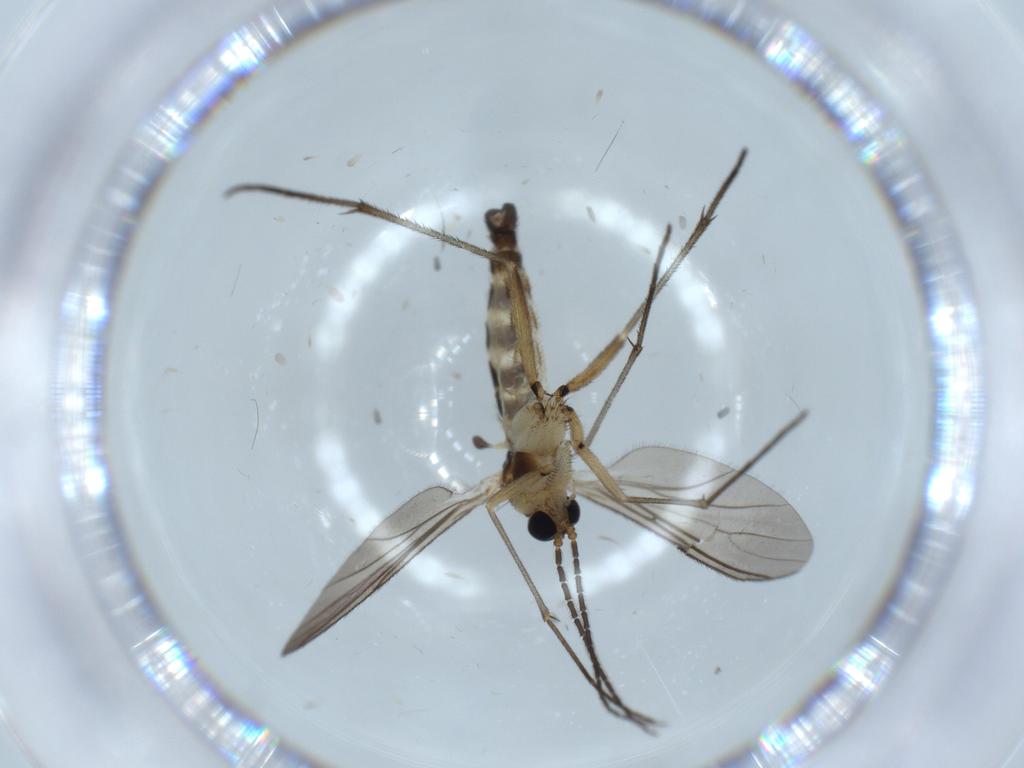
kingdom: Animalia
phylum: Arthropoda
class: Insecta
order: Diptera
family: Sciaridae
